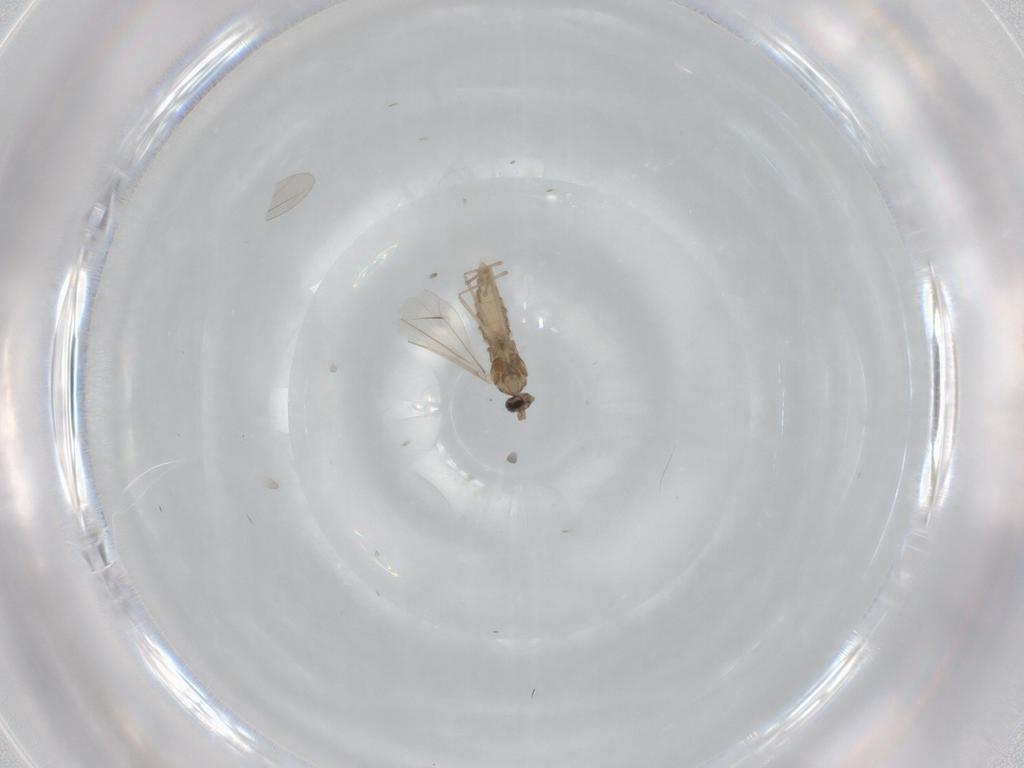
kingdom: Animalia
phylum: Arthropoda
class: Insecta
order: Diptera
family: Cecidomyiidae
